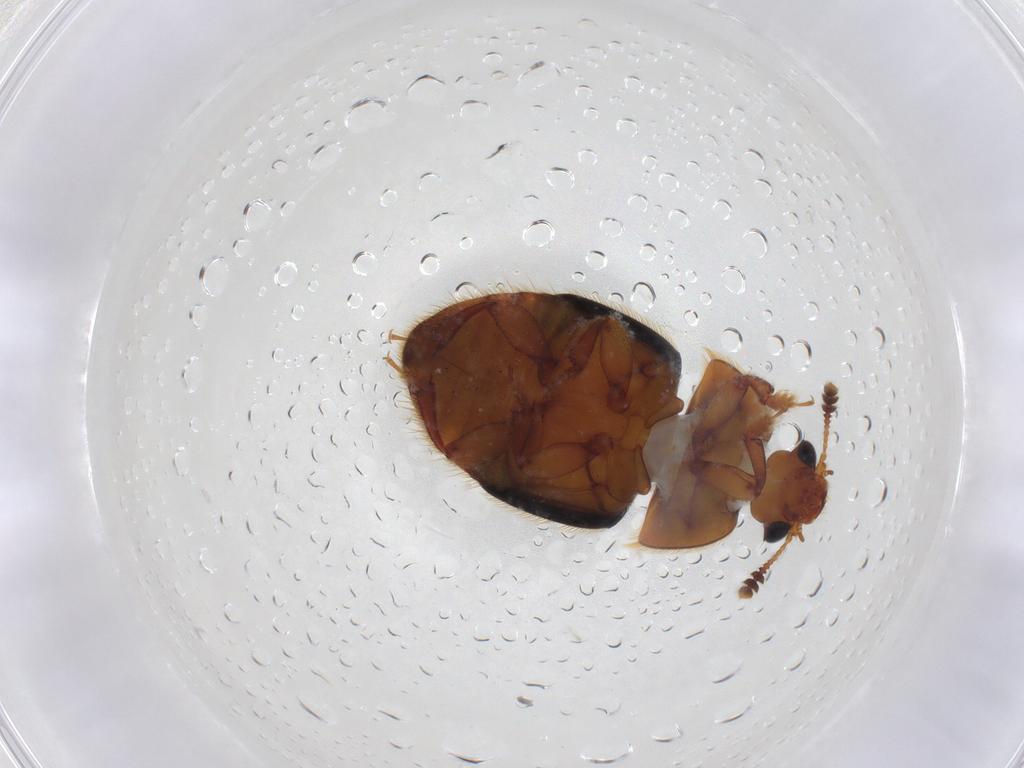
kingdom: Animalia
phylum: Arthropoda
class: Insecta
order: Coleoptera
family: Nitidulidae
